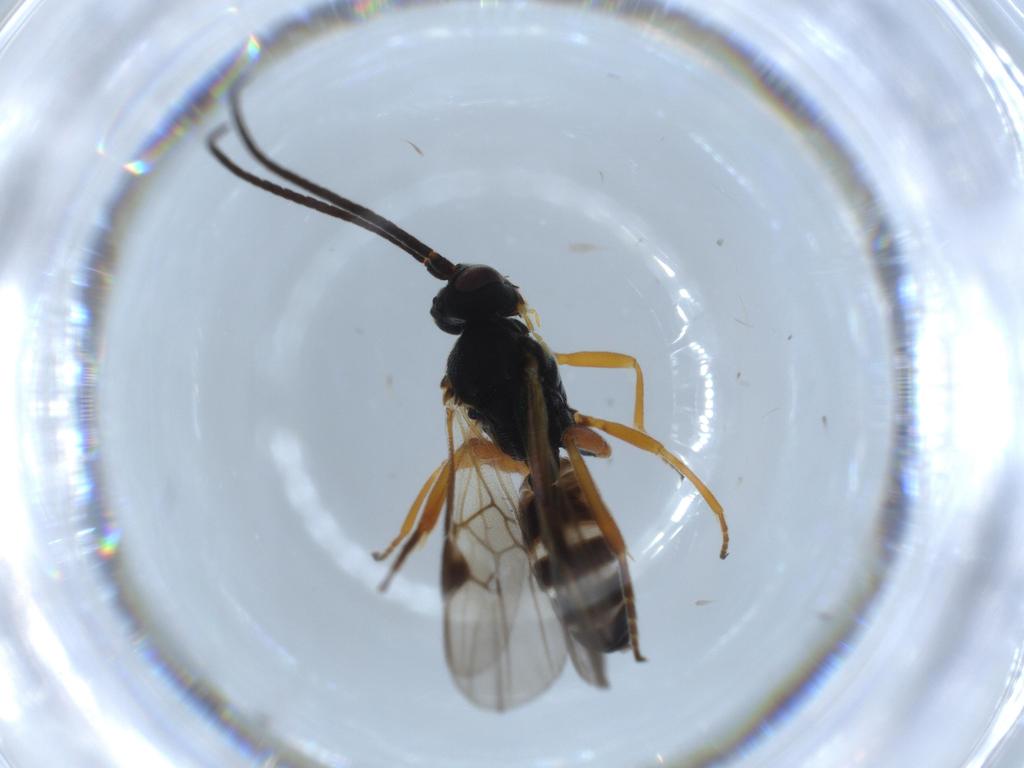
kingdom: Animalia
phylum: Arthropoda
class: Insecta
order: Hymenoptera
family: Braconidae
